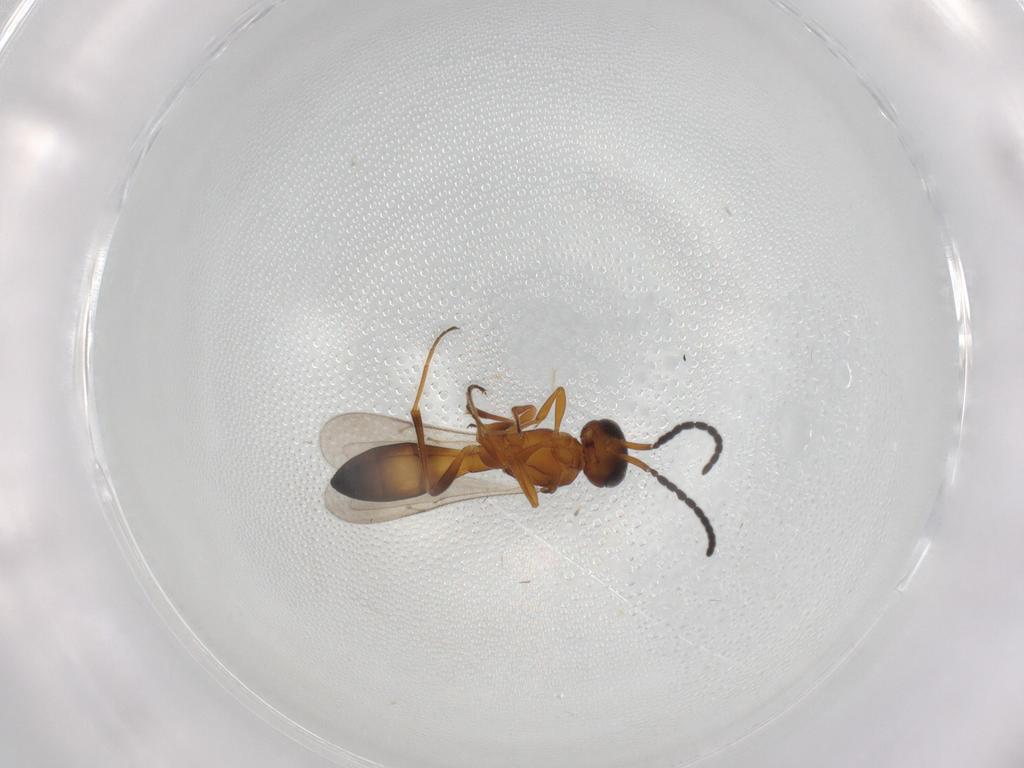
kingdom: Animalia
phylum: Arthropoda
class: Insecta
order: Hymenoptera
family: Scelionidae
